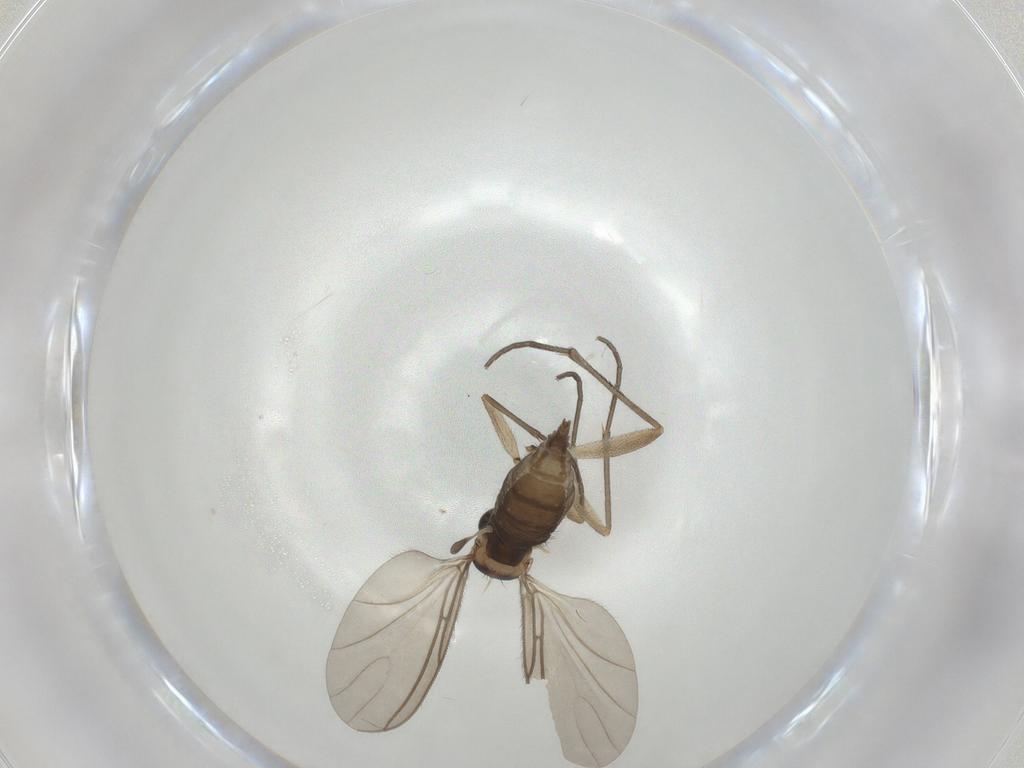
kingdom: Animalia
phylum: Arthropoda
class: Insecta
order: Diptera
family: Sciaridae
